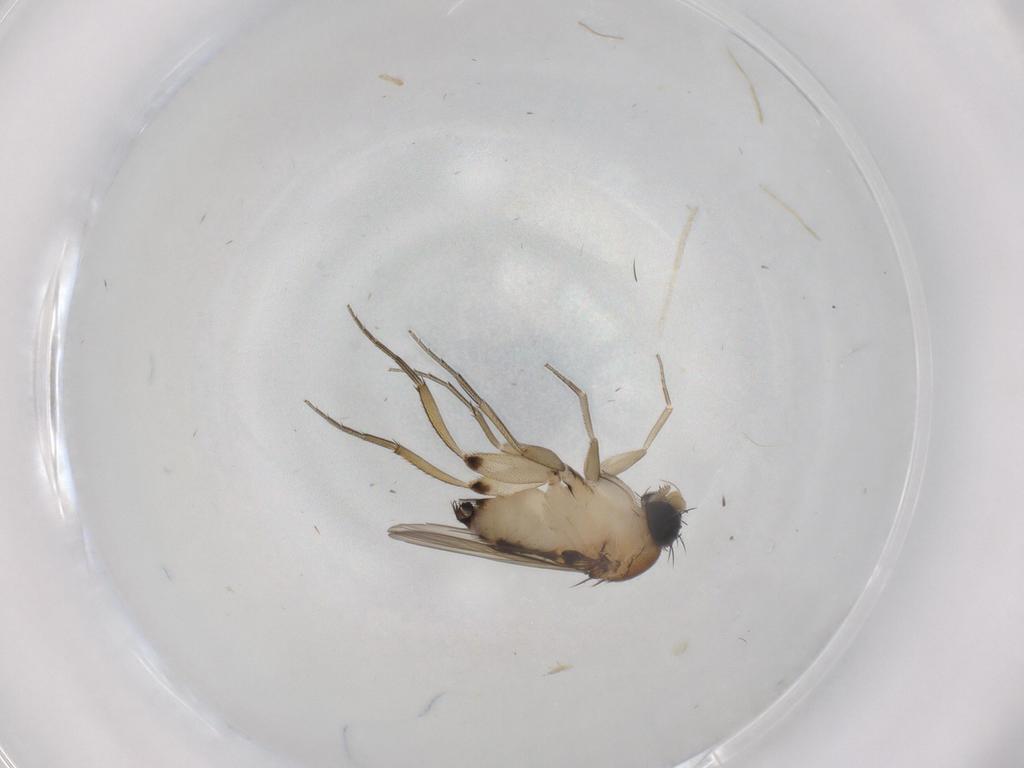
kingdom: Animalia
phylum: Arthropoda
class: Insecta
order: Diptera
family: Phoridae
